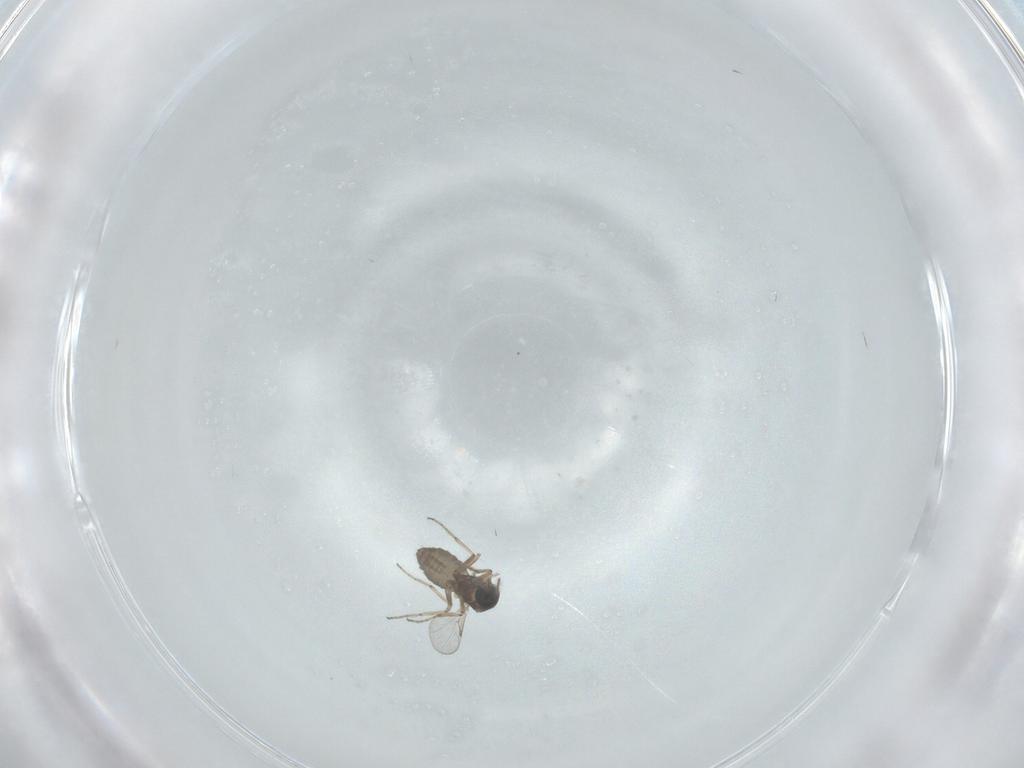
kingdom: Animalia
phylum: Arthropoda
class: Insecta
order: Diptera
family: Ceratopogonidae
